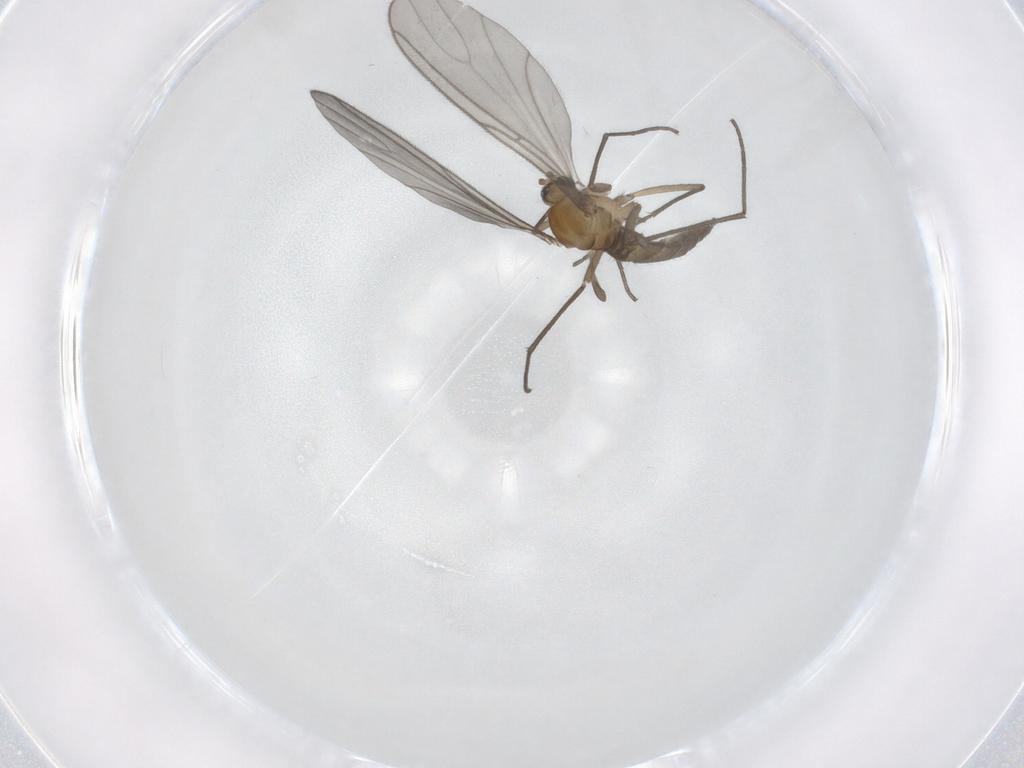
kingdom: Animalia
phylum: Arthropoda
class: Insecta
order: Diptera
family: Sciaridae
